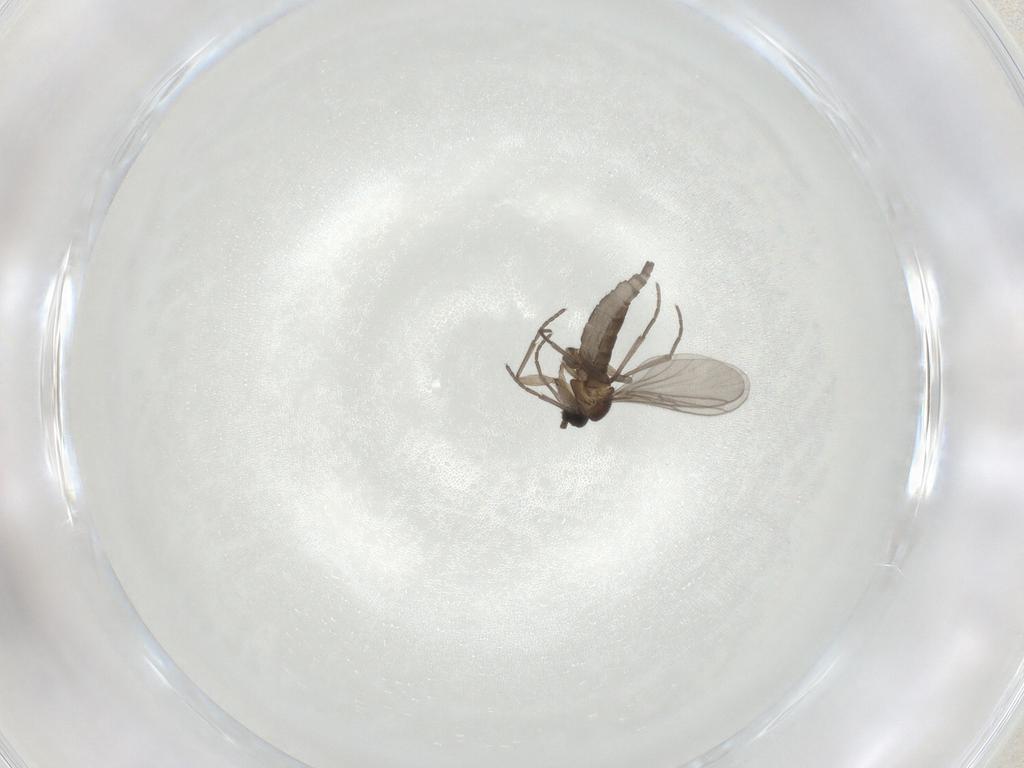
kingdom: Animalia
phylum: Arthropoda
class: Insecta
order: Diptera
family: Sciaridae
